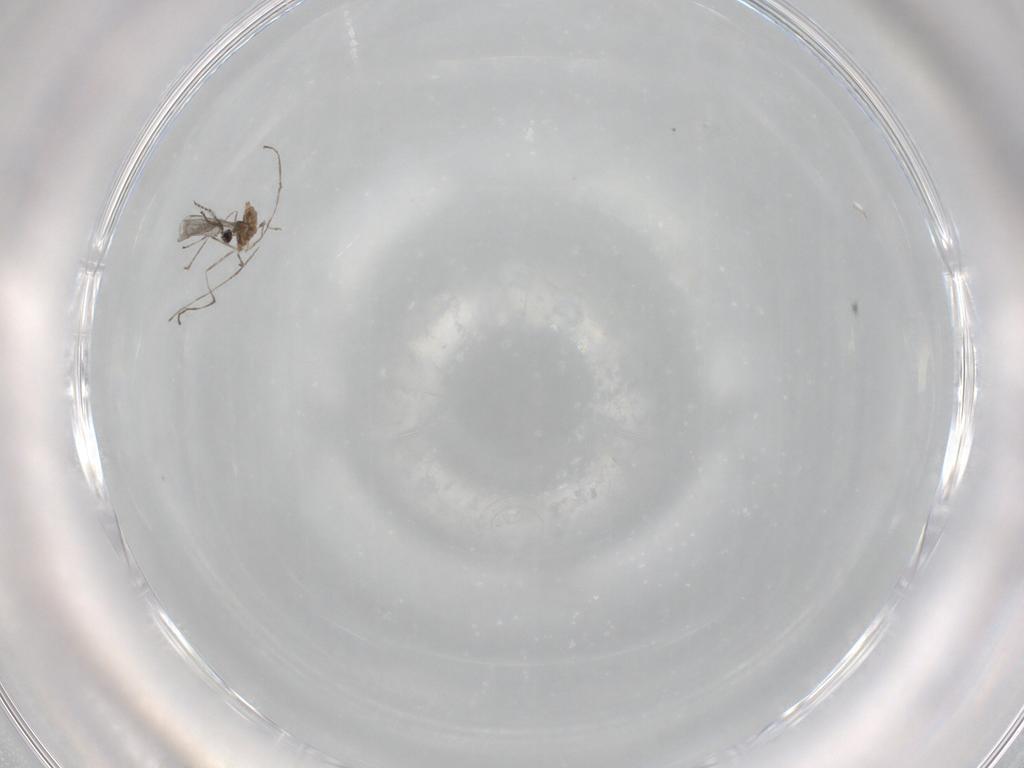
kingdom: Animalia
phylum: Arthropoda
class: Insecta
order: Diptera
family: Cecidomyiidae
